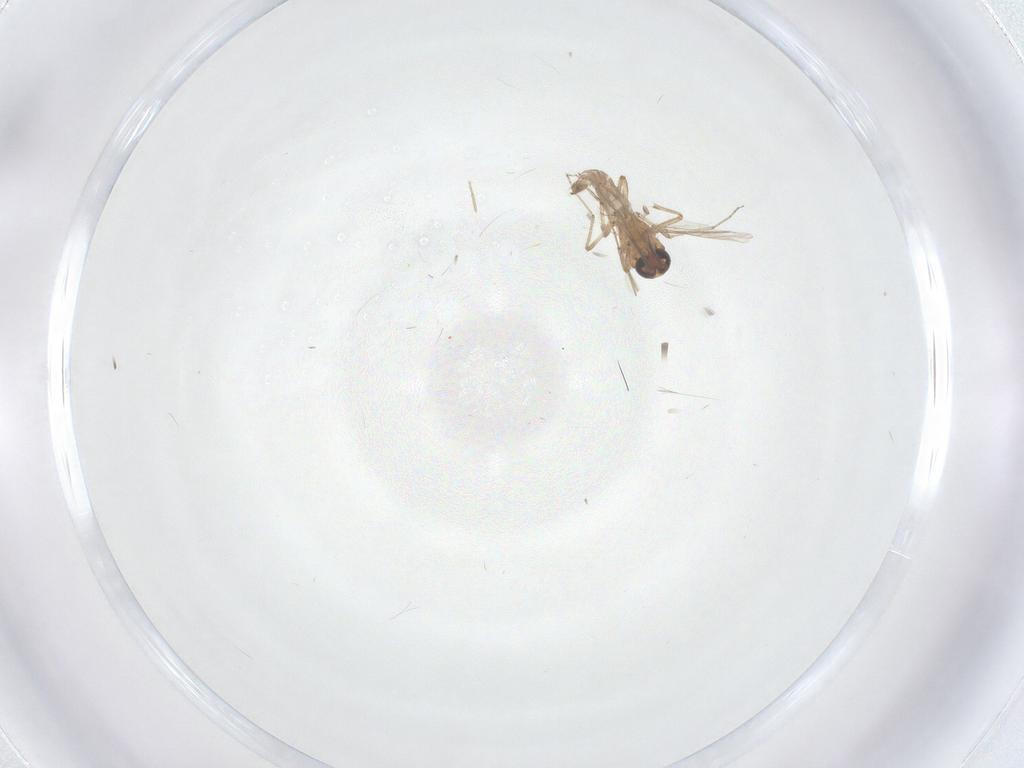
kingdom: Animalia
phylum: Arthropoda
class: Insecta
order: Diptera
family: Chironomidae
